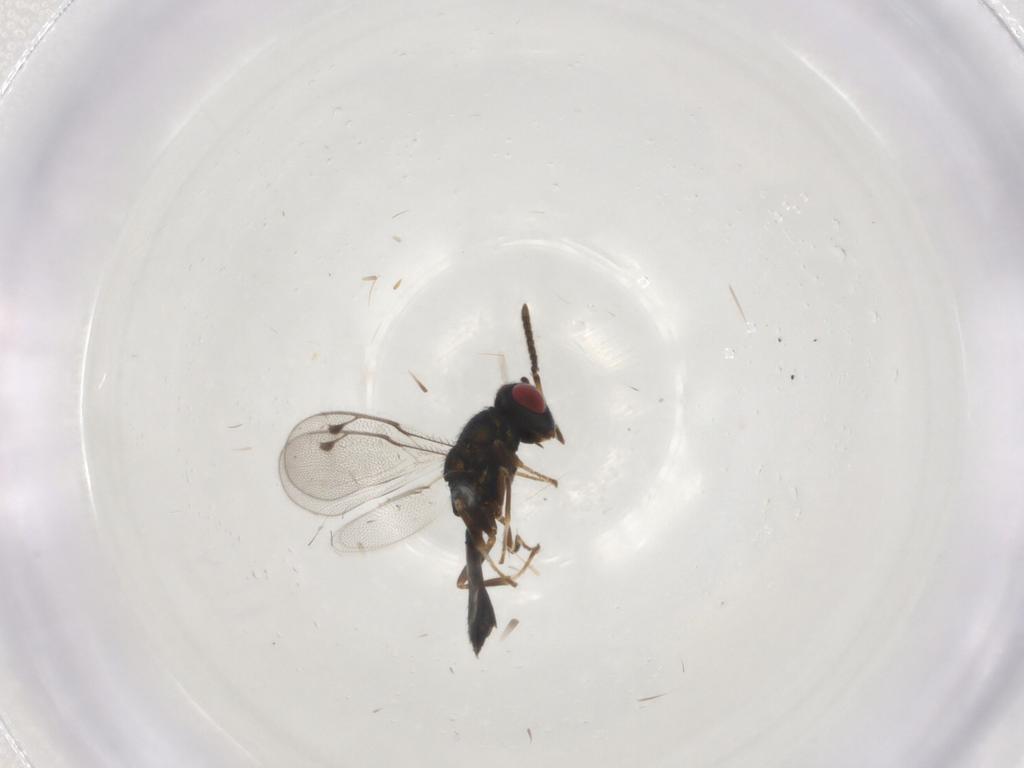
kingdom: Animalia
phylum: Arthropoda
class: Insecta
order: Hymenoptera
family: Pteromalidae
